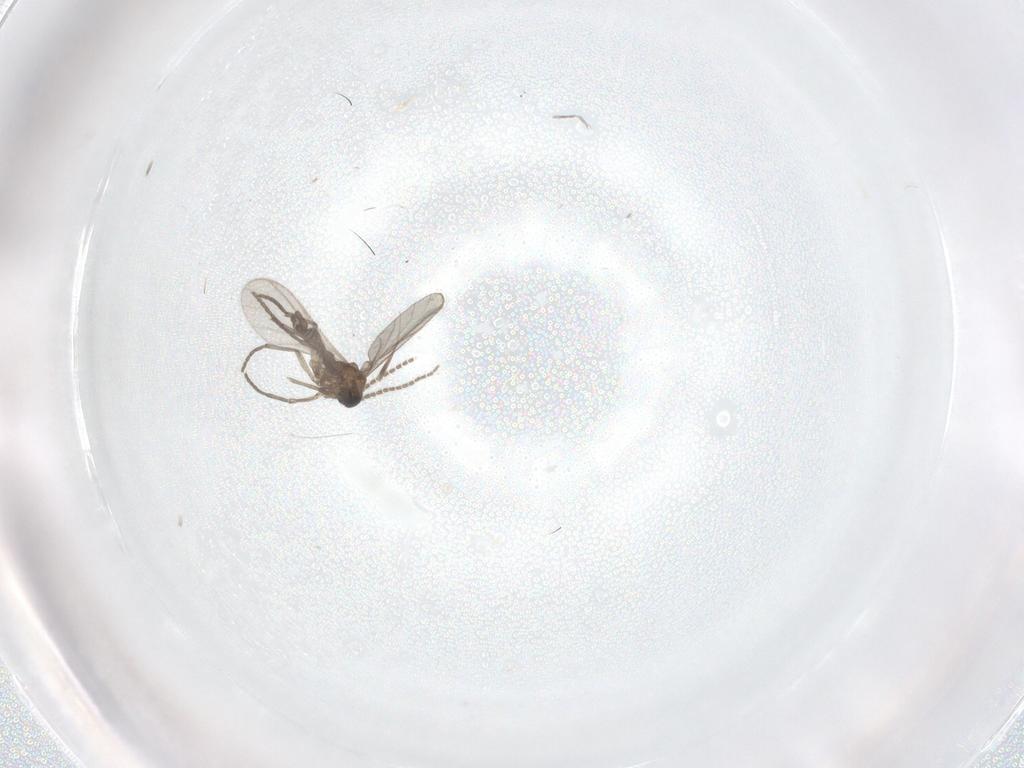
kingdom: Animalia
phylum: Arthropoda
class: Insecta
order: Diptera
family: Sciaridae
